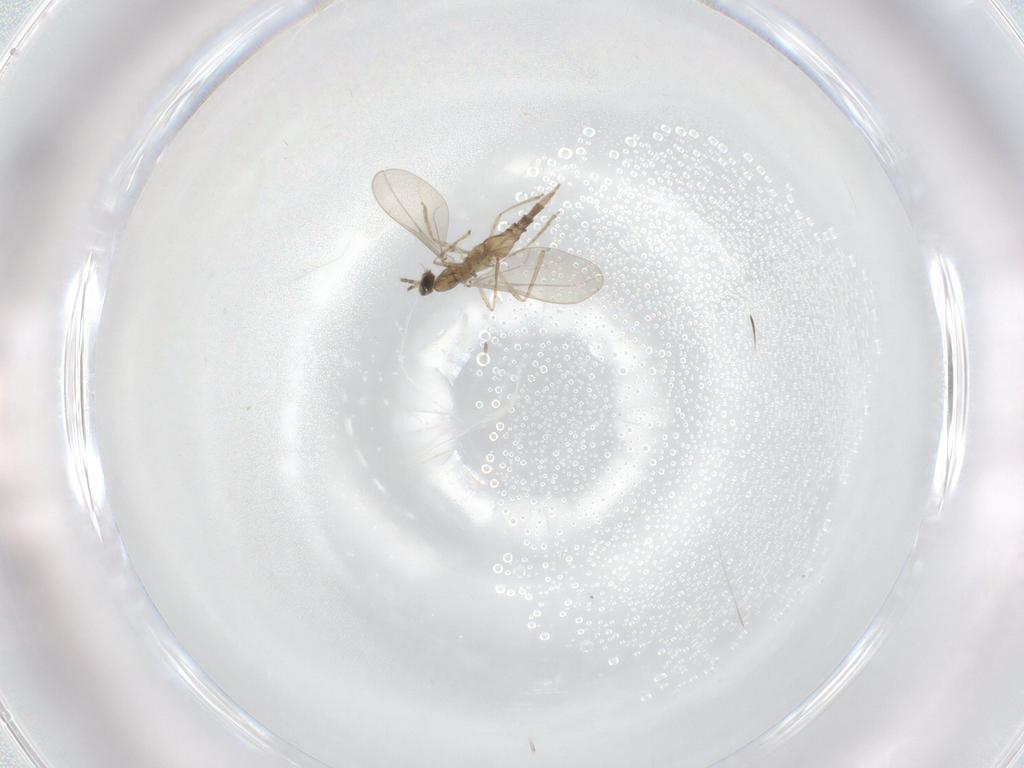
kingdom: Animalia
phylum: Arthropoda
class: Insecta
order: Diptera
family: Cecidomyiidae
